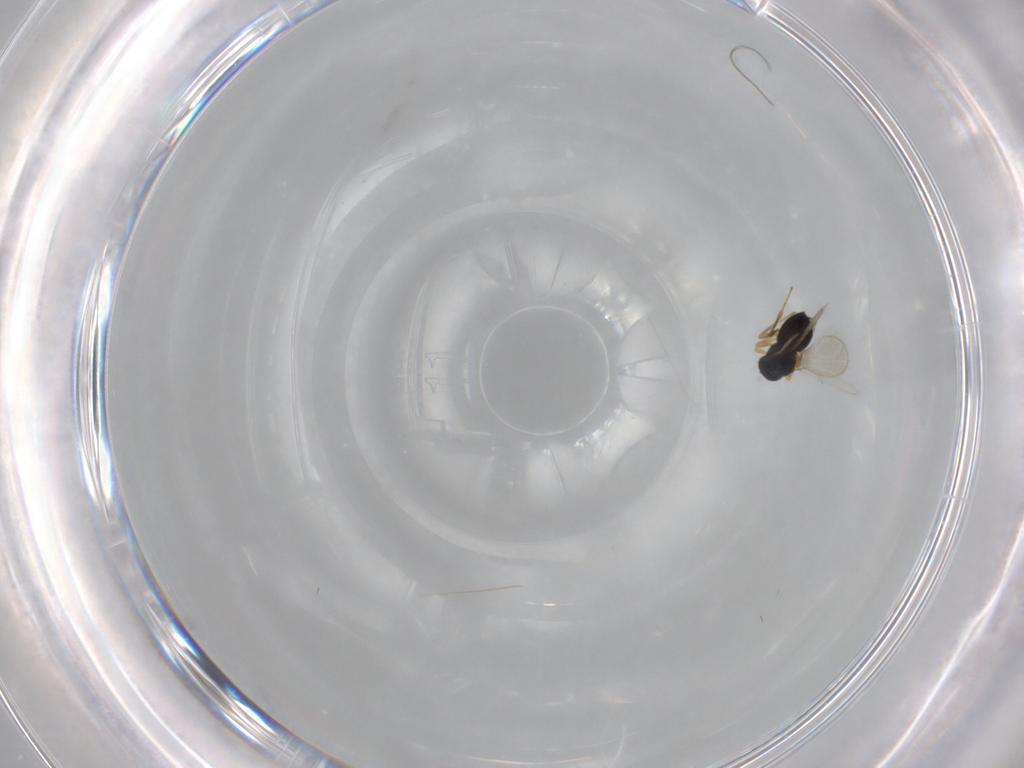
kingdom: Animalia
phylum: Arthropoda
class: Insecta
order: Hymenoptera
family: Platygastridae
